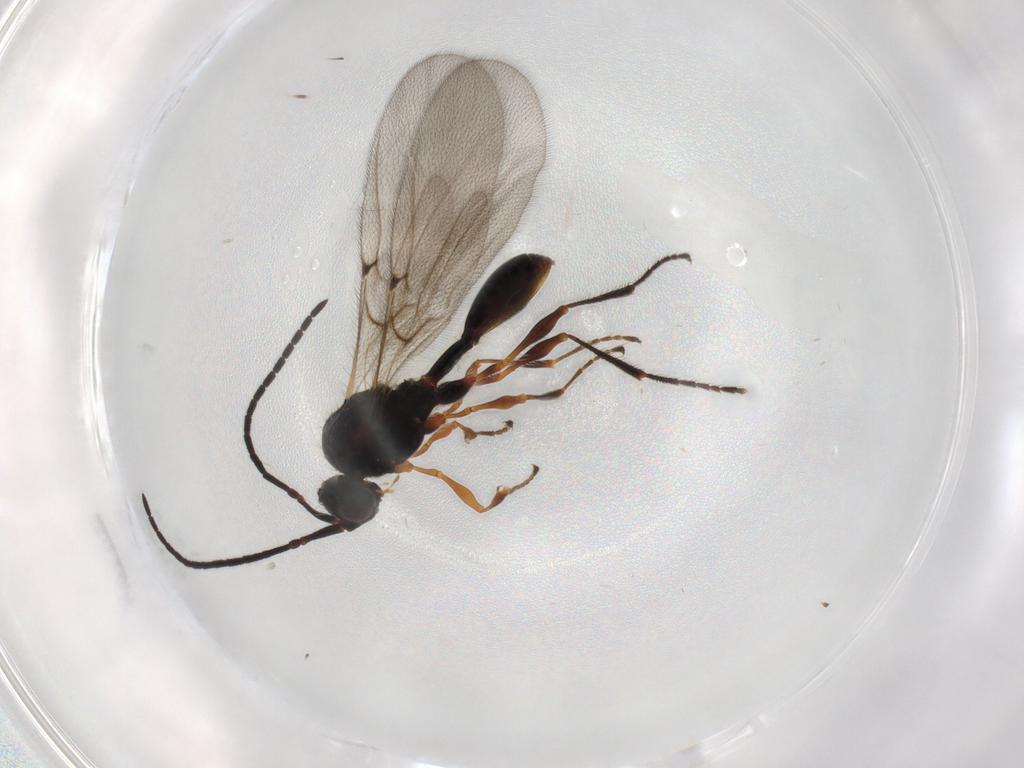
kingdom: Animalia
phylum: Arthropoda
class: Insecta
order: Hymenoptera
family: Diapriidae
